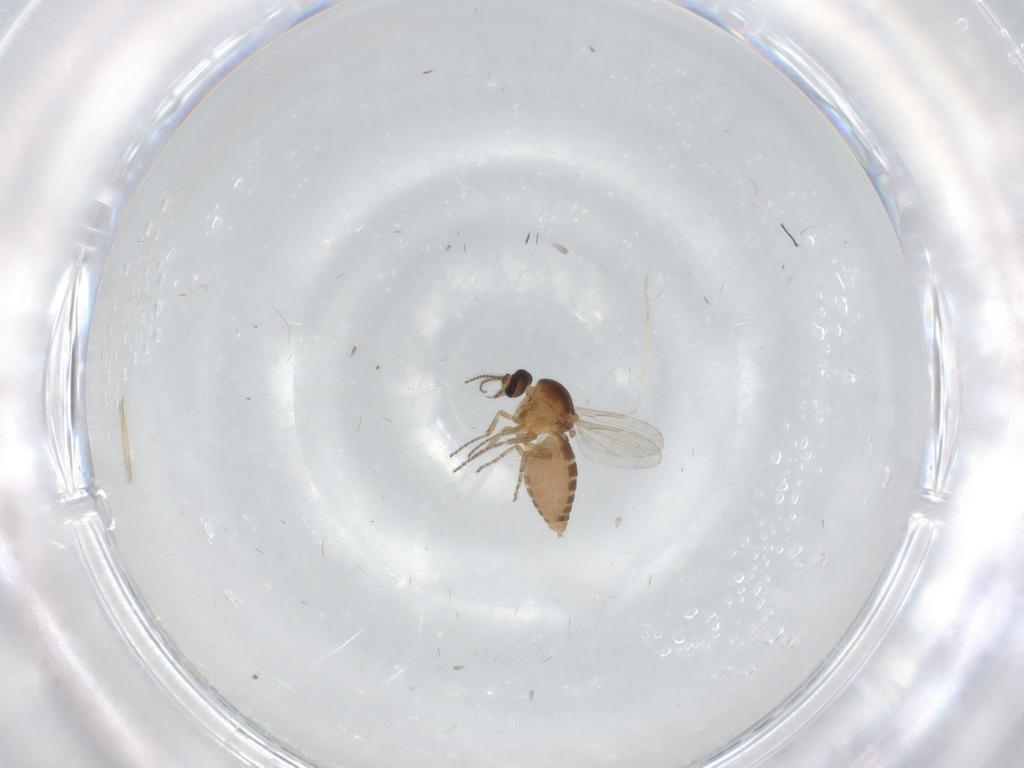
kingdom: Animalia
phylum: Arthropoda
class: Insecta
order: Diptera
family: Ceratopogonidae
